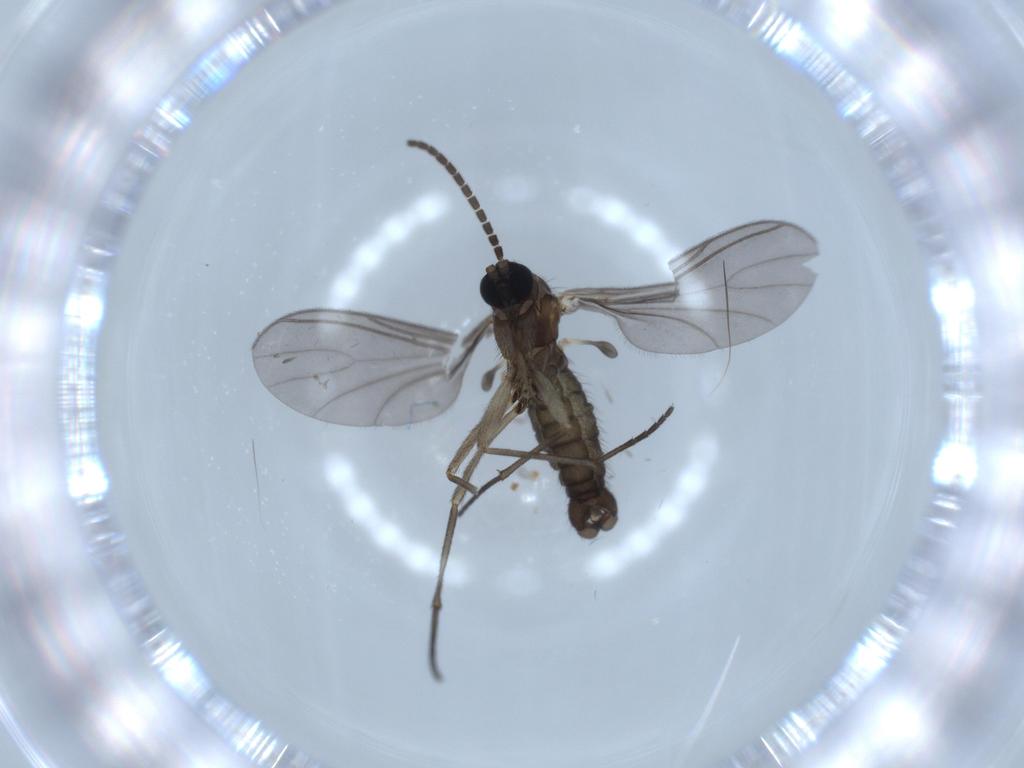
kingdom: Animalia
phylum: Arthropoda
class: Insecta
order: Diptera
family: Sciaridae
